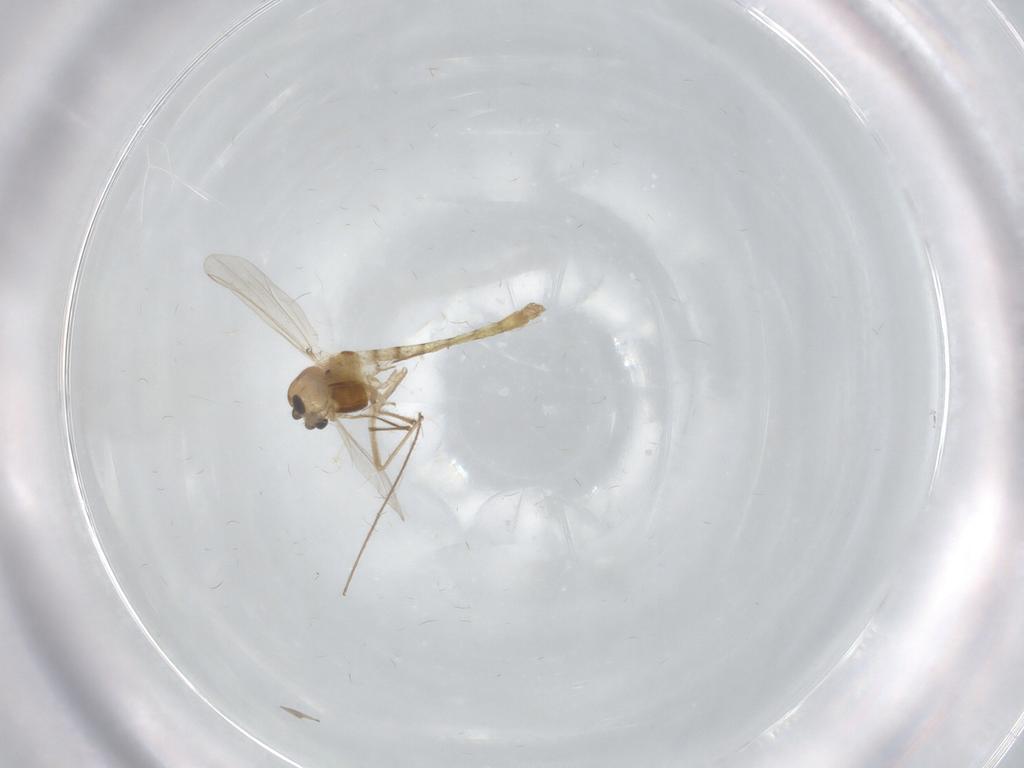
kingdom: Animalia
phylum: Arthropoda
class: Insecta
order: Diptera
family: Chironomidae
